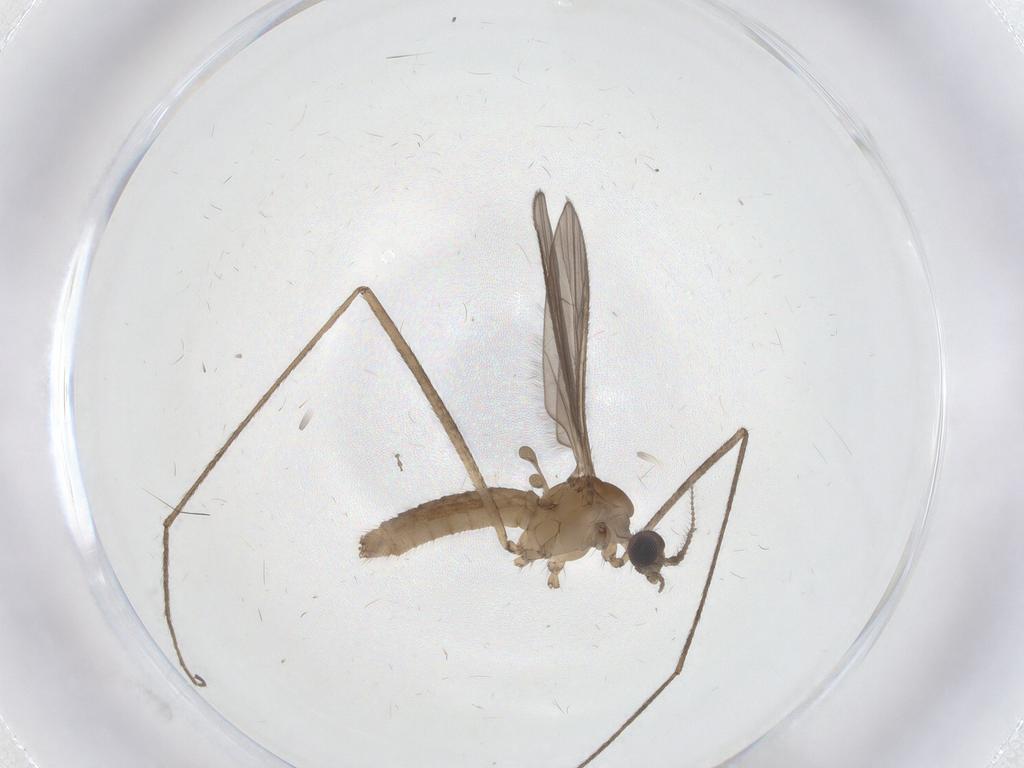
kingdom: Animalia
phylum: Arthropoda
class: Insecta
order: Diptera
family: Limoniidae
